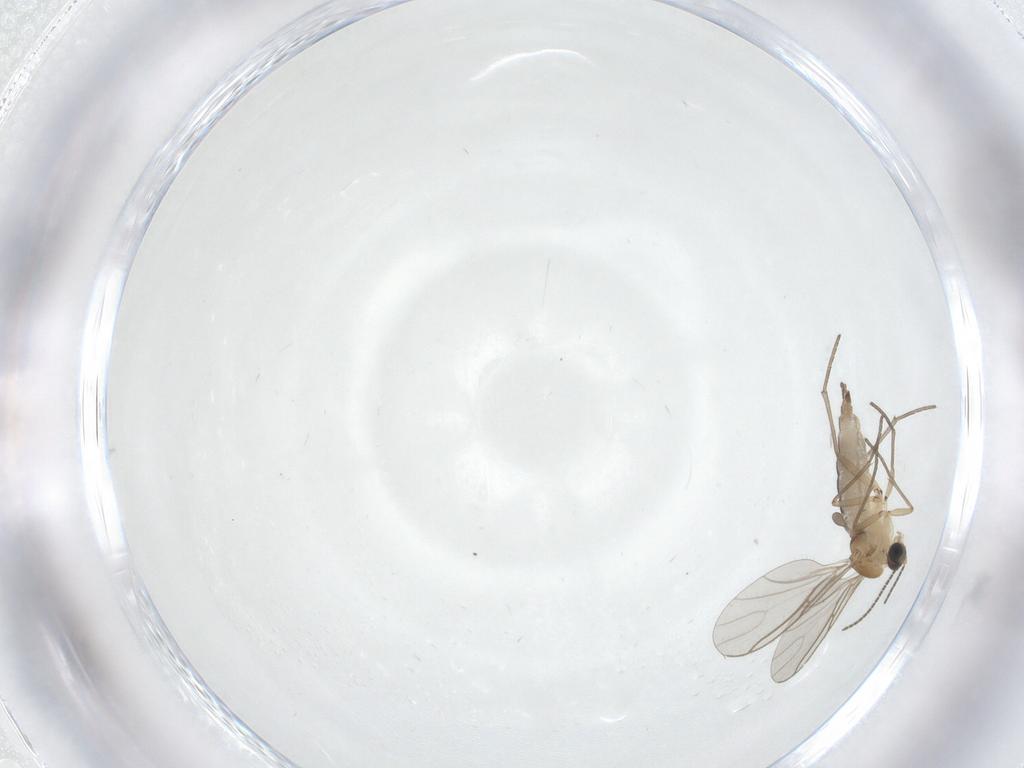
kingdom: Animalia
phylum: Arthropoda
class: Insecta
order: Diptera
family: Sciaridae
